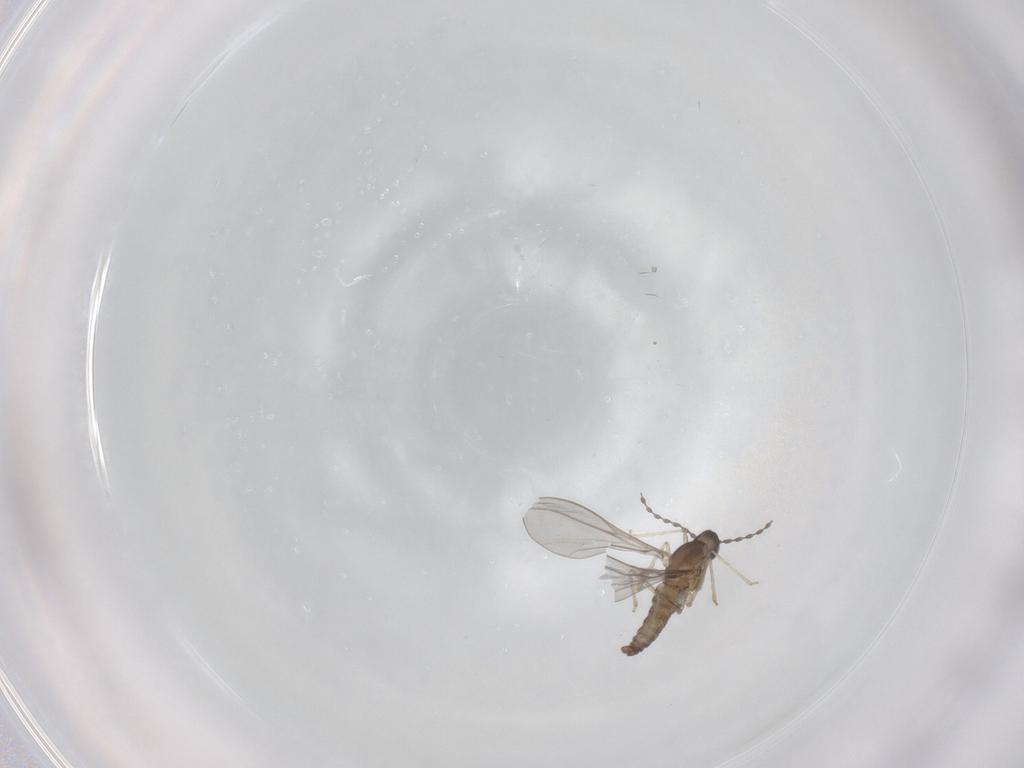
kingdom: Animalia
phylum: Arthropoda
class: Insecta
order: Diptera
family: Cecidomyiidae
